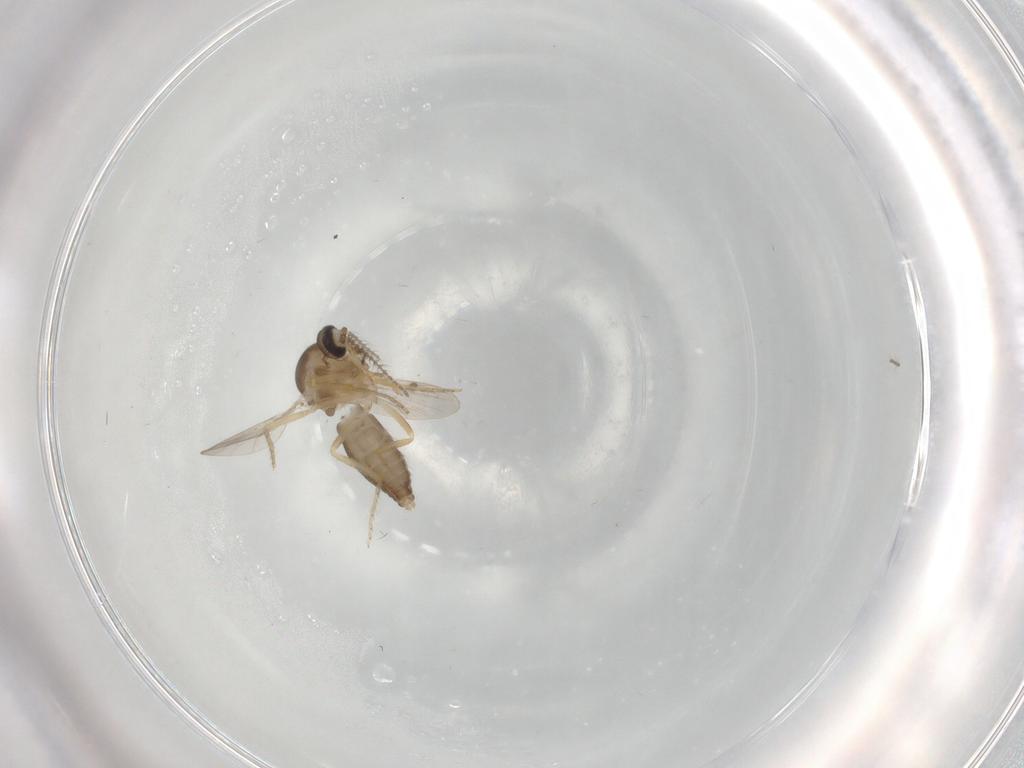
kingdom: Animalia
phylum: Arthropoda
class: Insecta
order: Diptera
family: Ceratopogonidae
